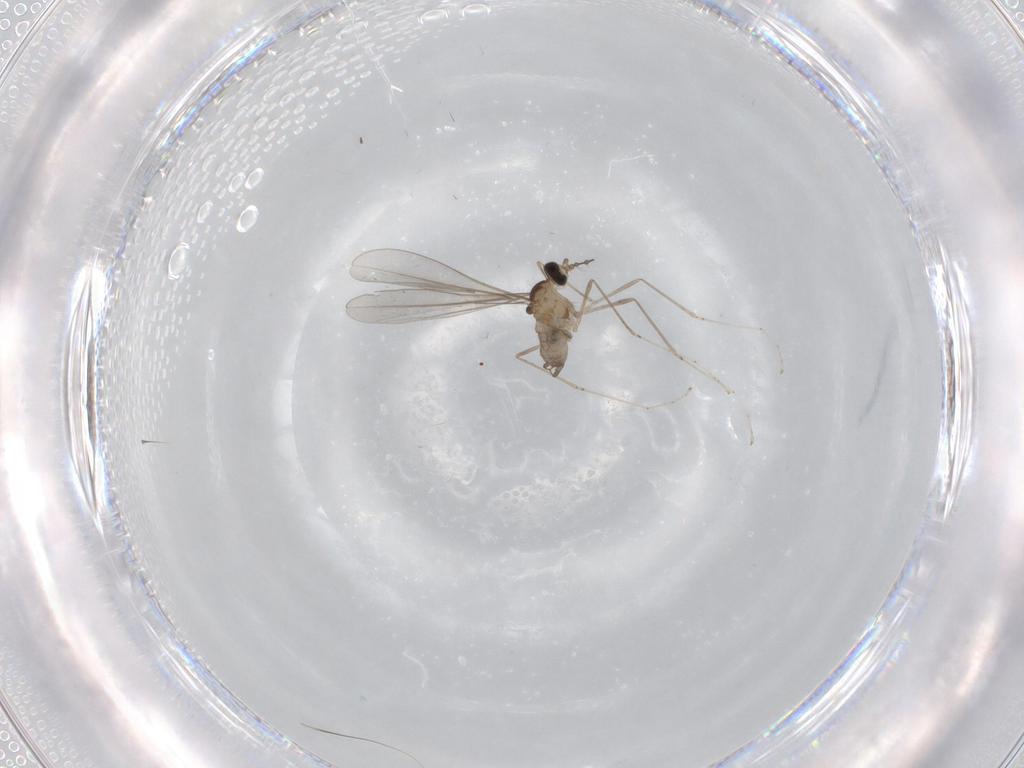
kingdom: Animalia
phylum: Arthropoda
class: Insecta
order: Diptera
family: Cecidomyiidae
